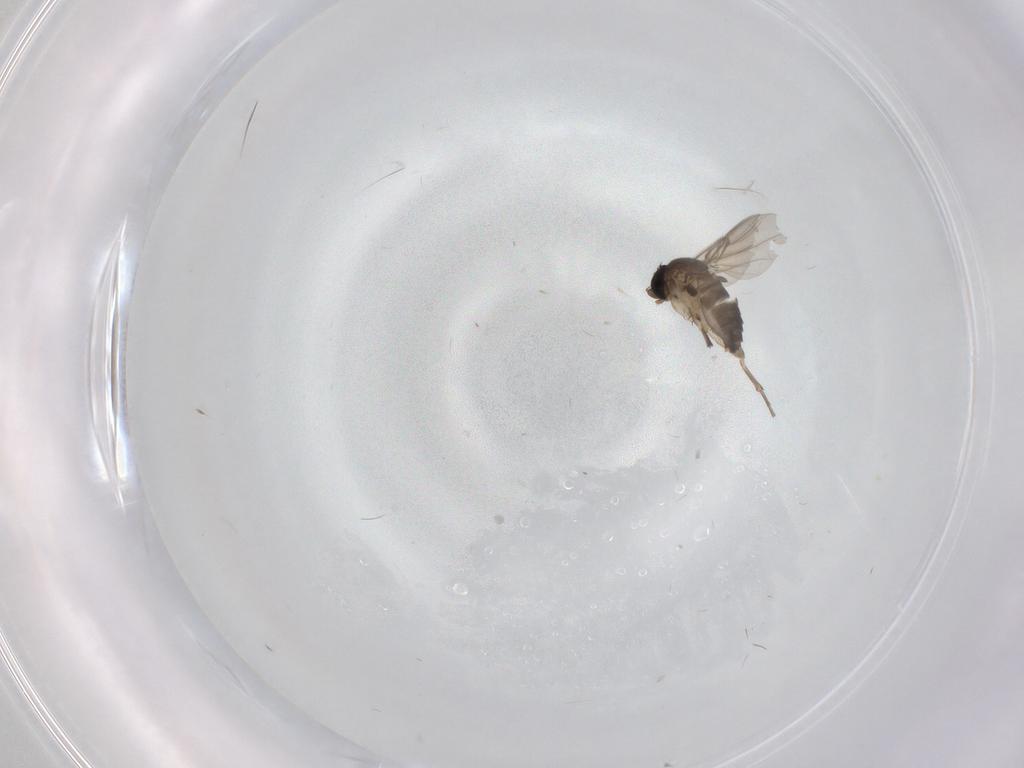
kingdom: Animalia
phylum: Arthropoda
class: Insecta
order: Diptera
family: Phoridae
